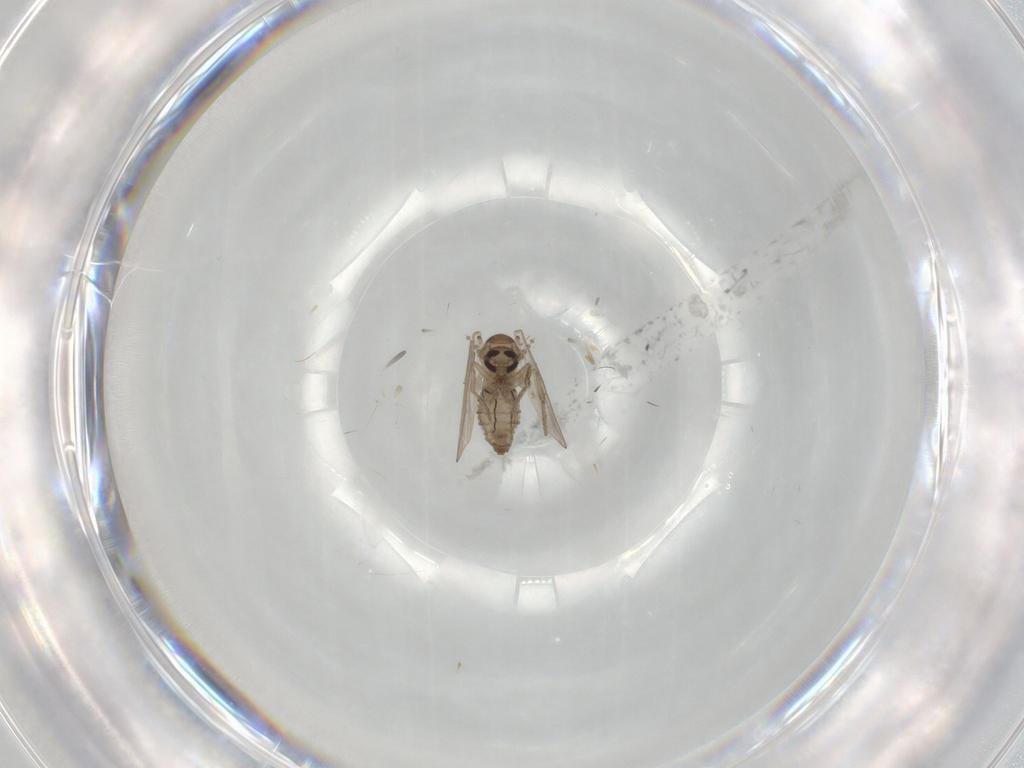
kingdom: Animalia
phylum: Arthropoda
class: Insecta
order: Diptera
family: Psychodidae
